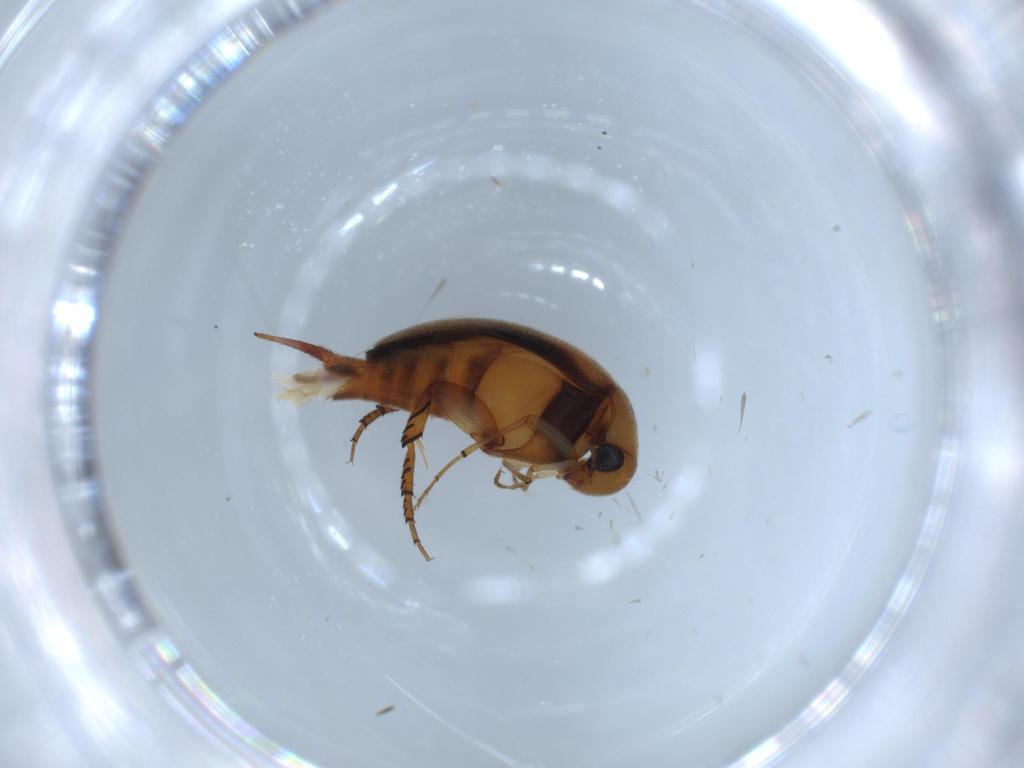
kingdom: Animalia
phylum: Arthropoda
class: Insecta
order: Coleoptera
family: Mordellidae
